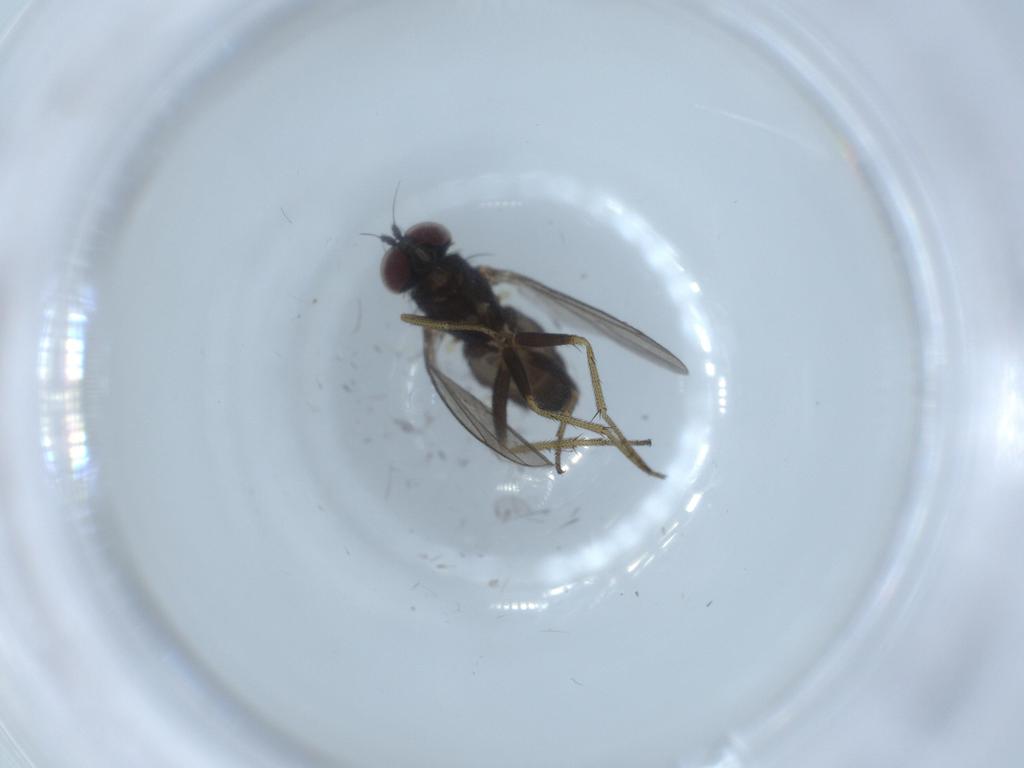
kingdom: Animalia
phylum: Arthropoda
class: Insecta
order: Diptera
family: Dolichopodidae
